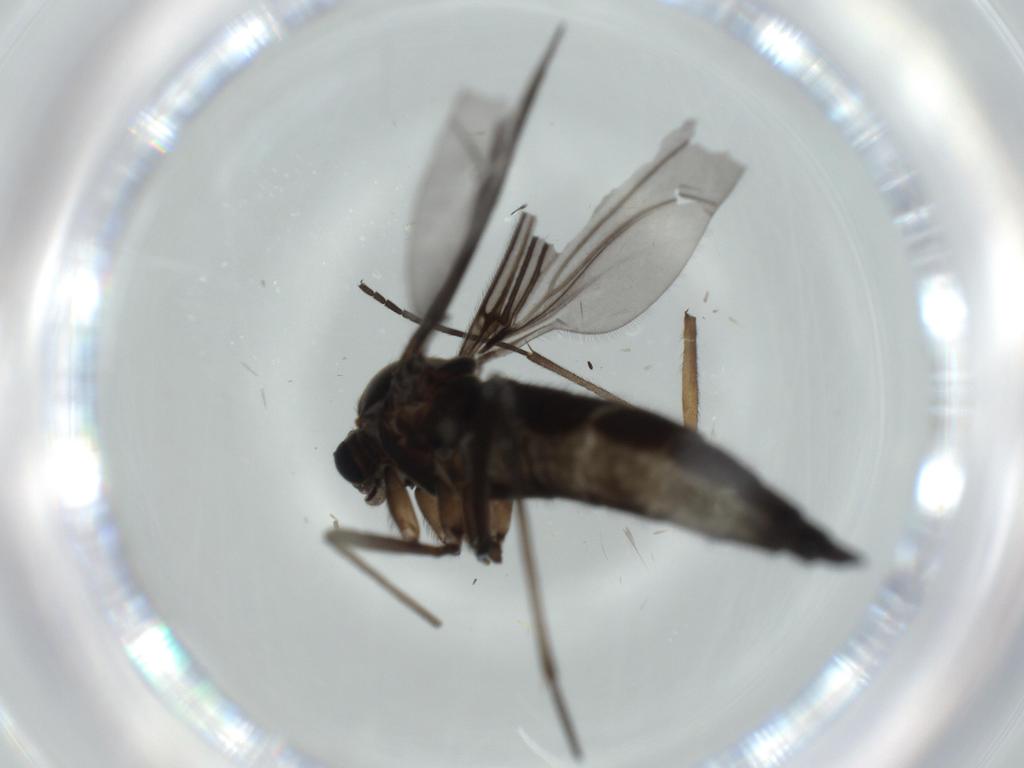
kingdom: Animalia
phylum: Arthropoda
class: Insecta
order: Diptera
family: Sciaridae
